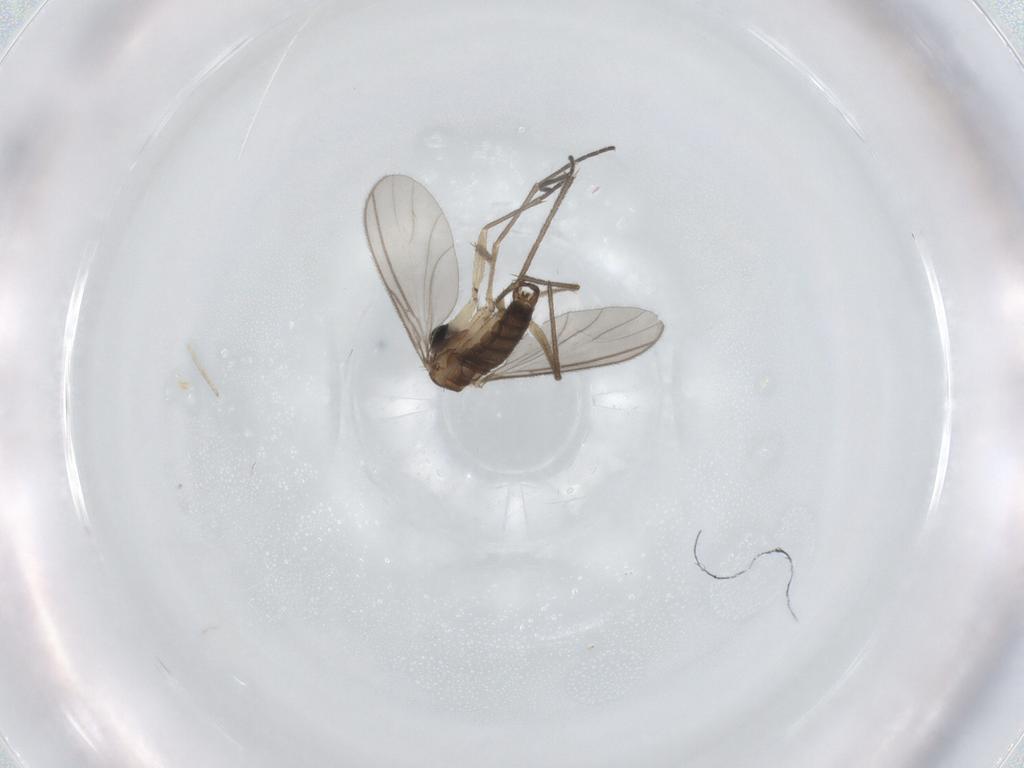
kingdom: Animalia
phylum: Arthropoda
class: Insecta
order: Diptera
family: Sciaridae
